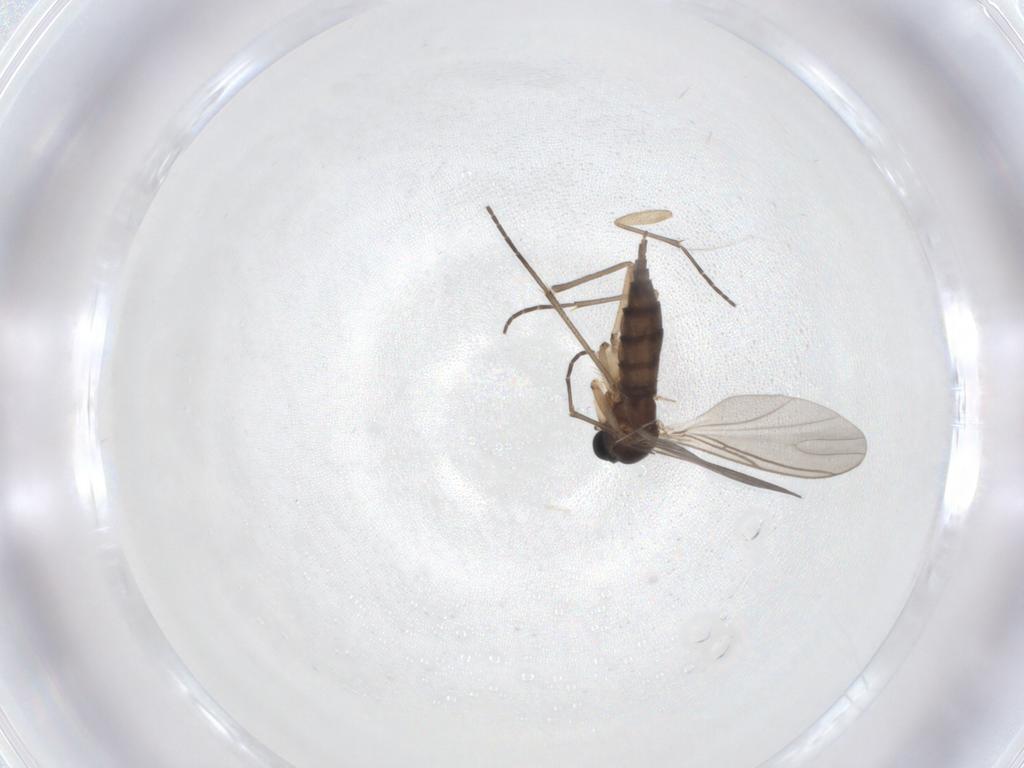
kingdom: Animalia
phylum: Arthropoda
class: Insecta
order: Diptera
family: Sciaridae
